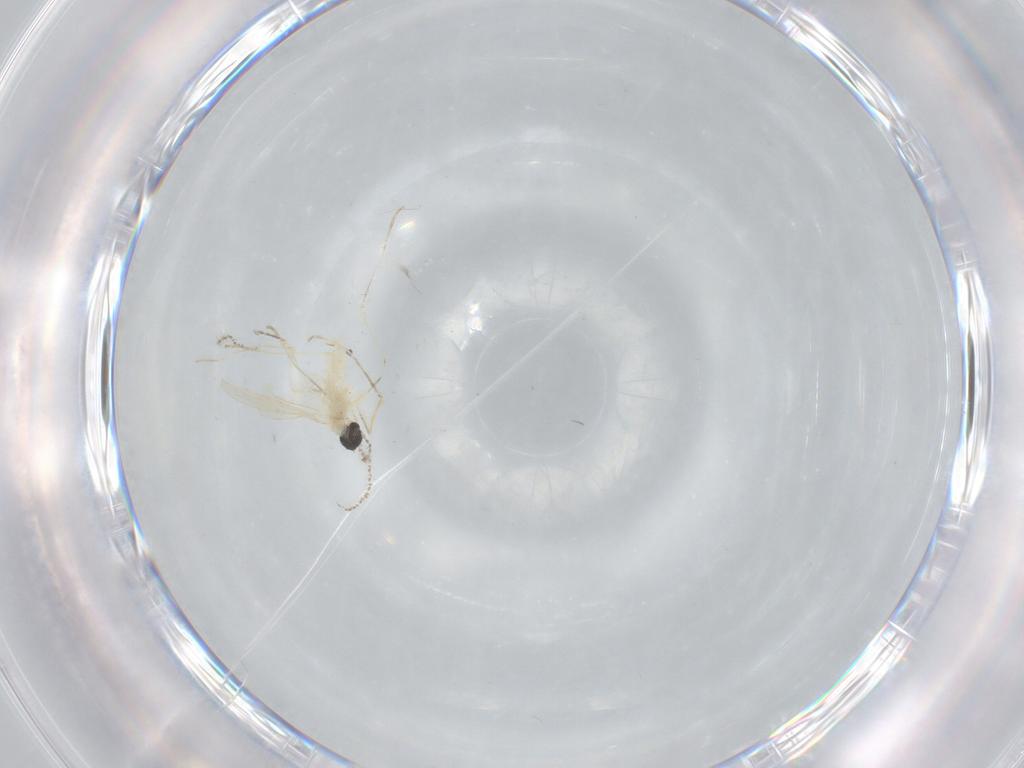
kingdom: Animalia
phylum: Arthropoda
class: Insecta
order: Diptera
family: Cecidomyiidae
